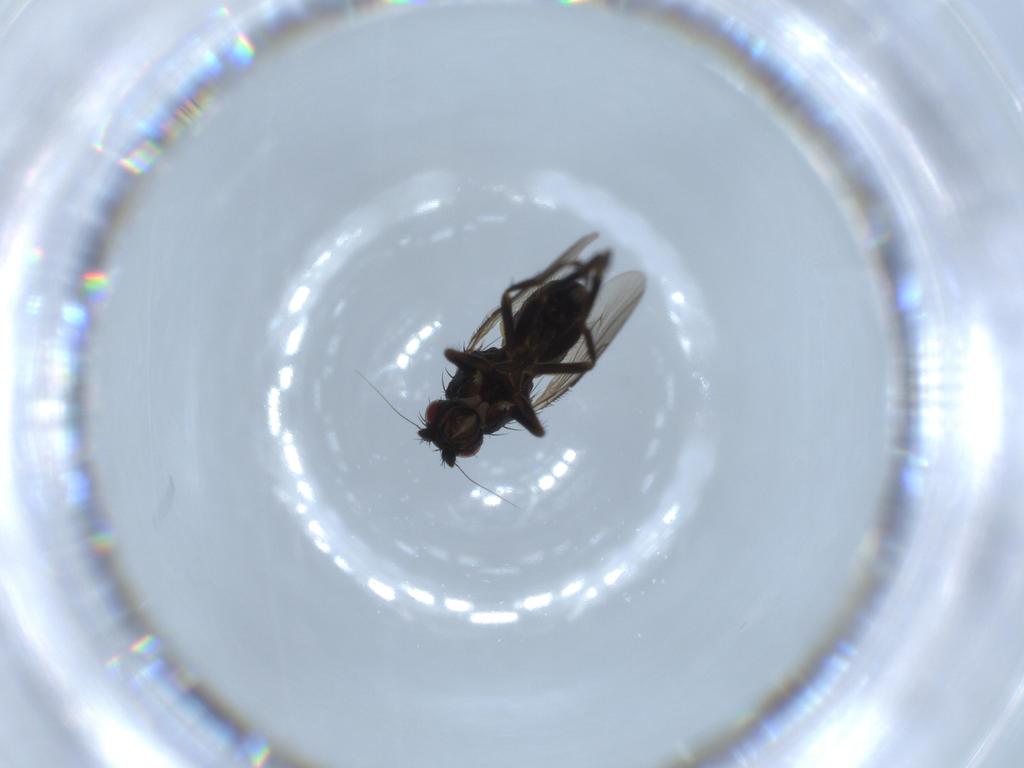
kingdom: Animalia
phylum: Arthropoda
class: Insecta
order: Diptera
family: Sphaeroceridae
